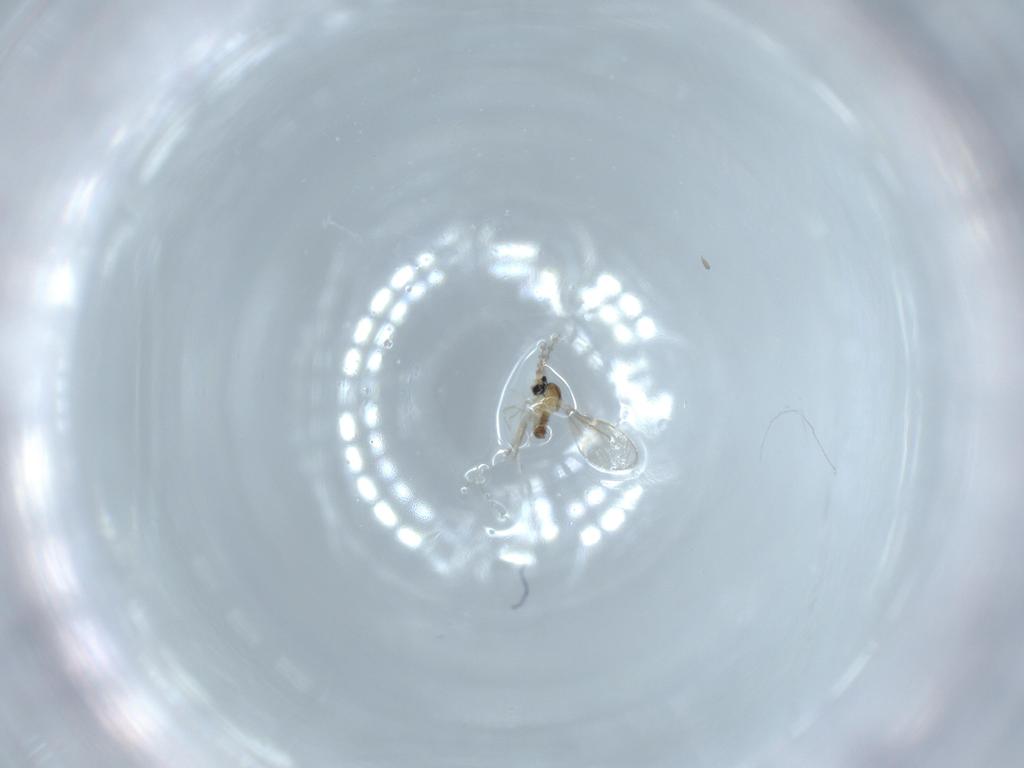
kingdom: Animalia
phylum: Arthropoda
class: Insecta
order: Diptera
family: Cecidomyiidae
